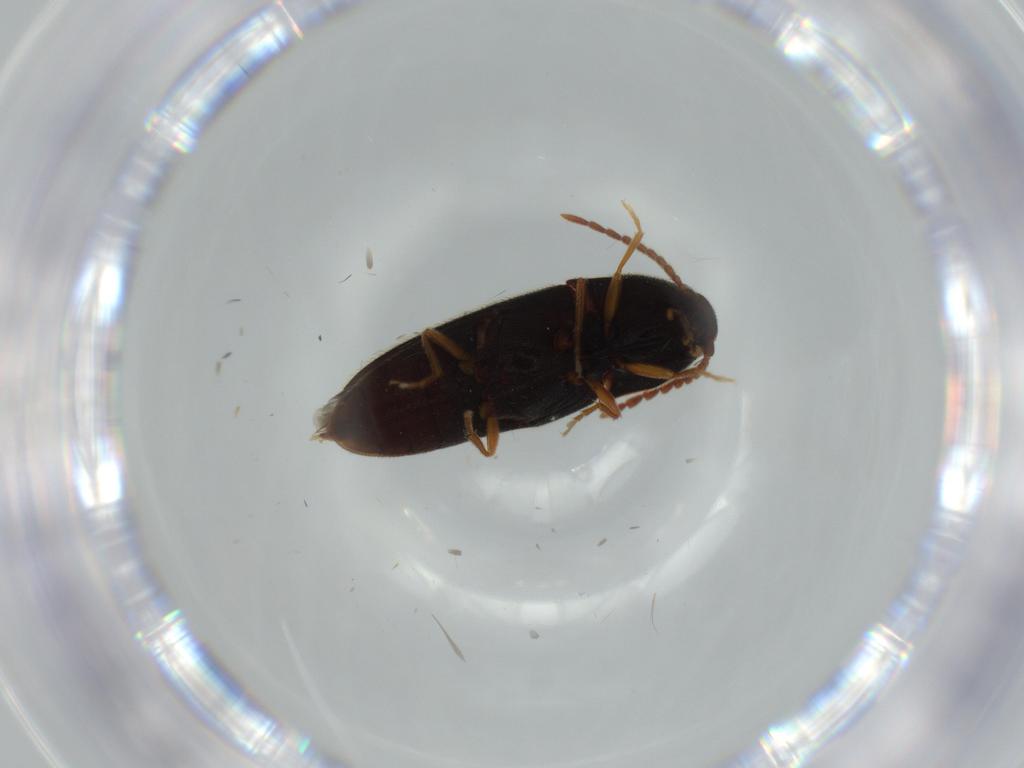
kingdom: Animalia
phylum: Arthropoda
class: Insecta
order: Coleoptera
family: Elateridae
